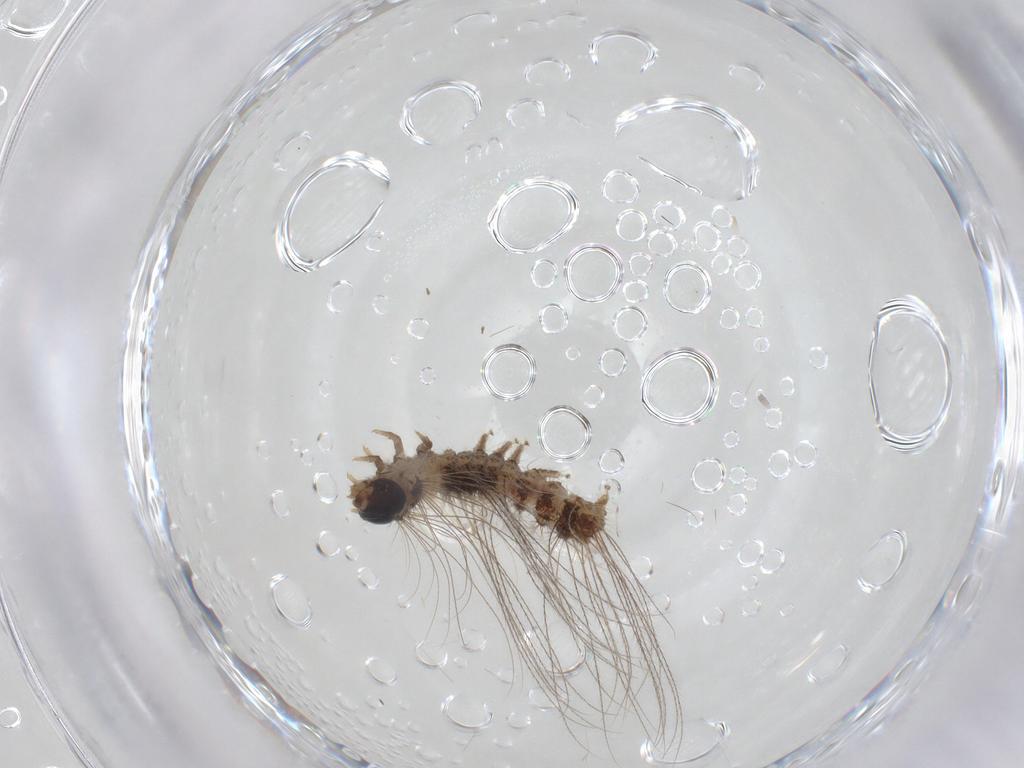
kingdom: Animalia
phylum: Arthropoda
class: Insecta
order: Lepidoptera
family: Erebidae
